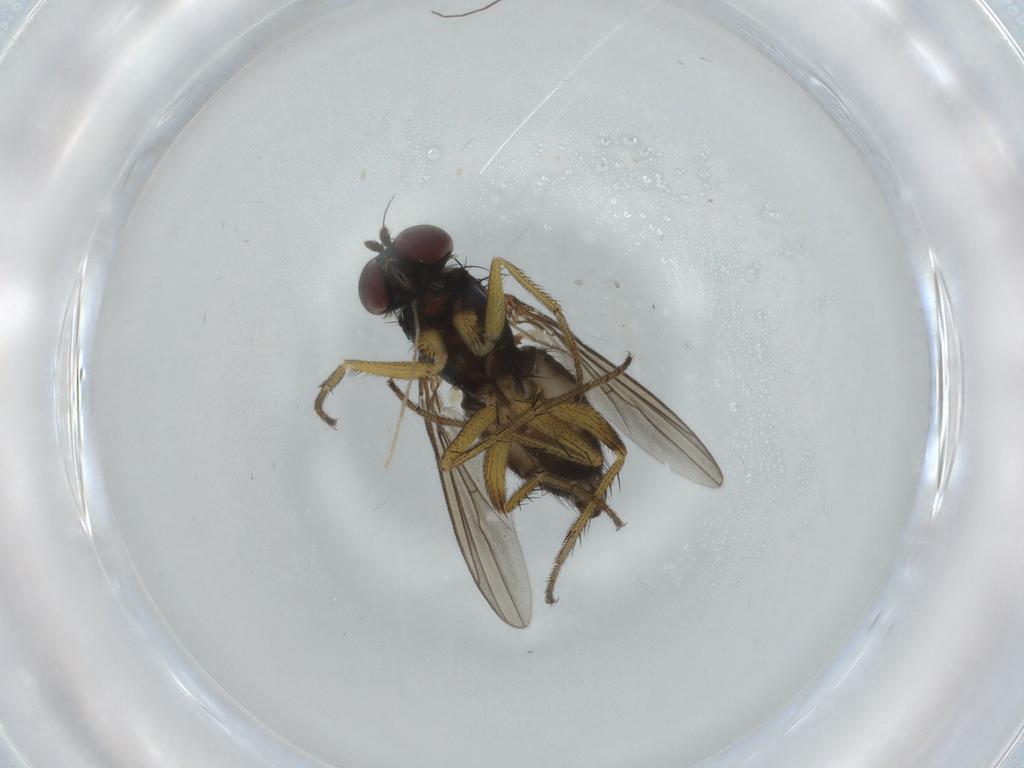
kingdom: Animalia
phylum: Arthropoda
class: Insecta
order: Diptera
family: Dolichopodidae
